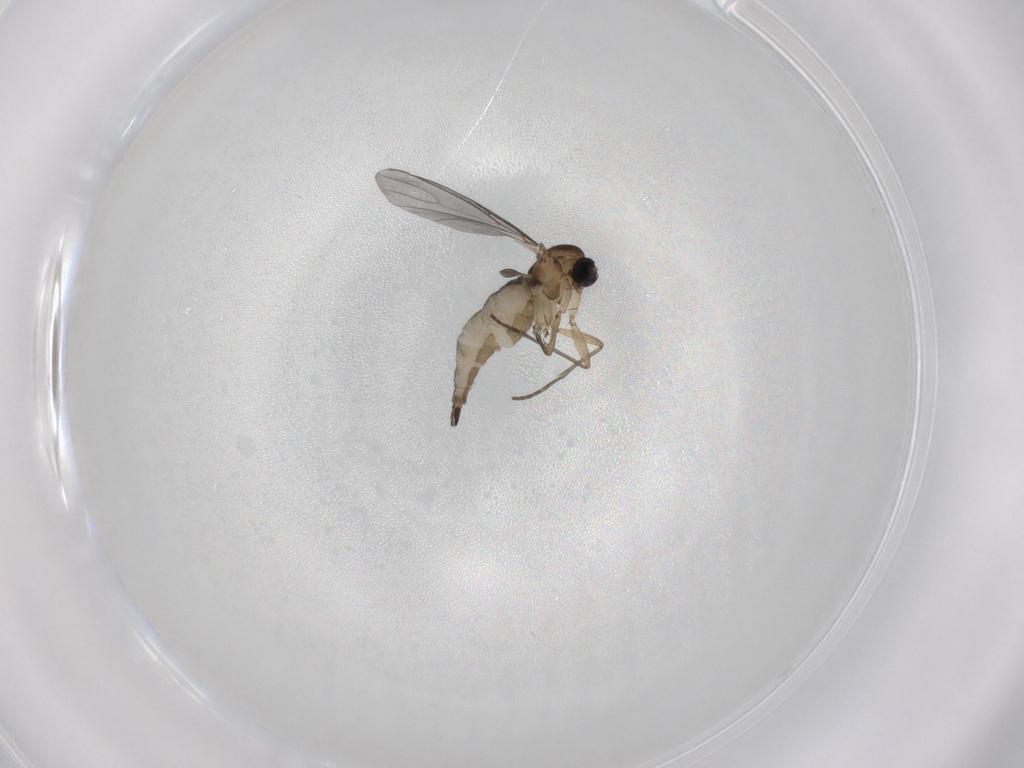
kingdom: Animalia
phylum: Arthropoda
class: Insecta
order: Diptera
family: Sciaridae
